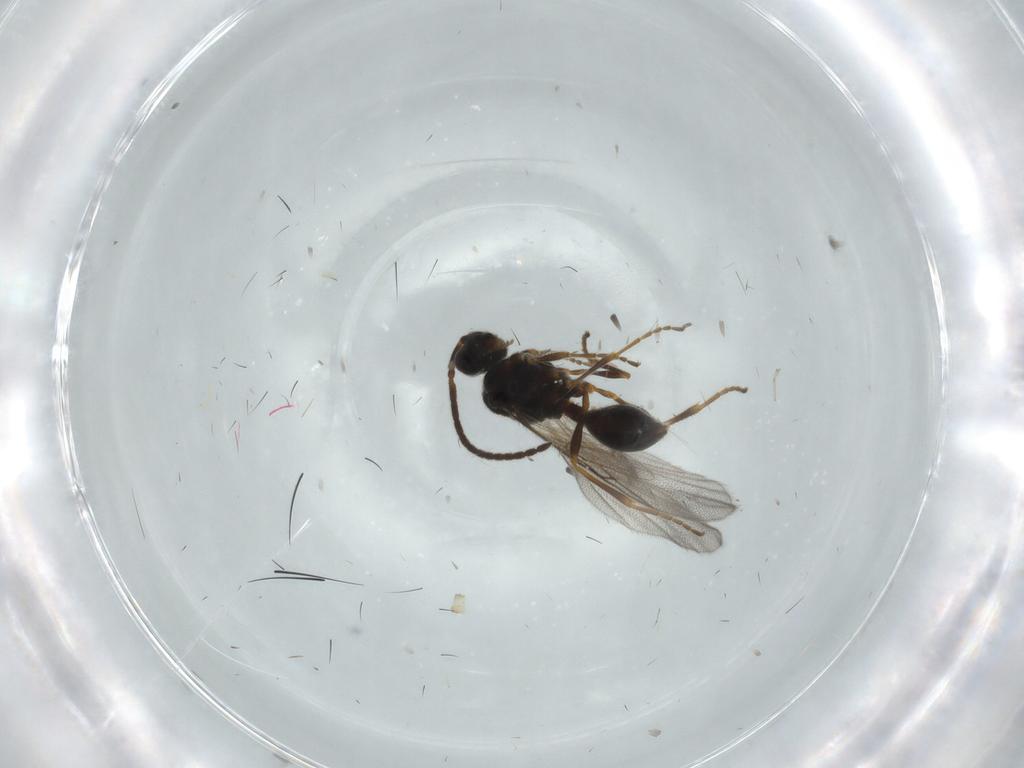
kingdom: Animalia
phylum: Arthropoda
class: Insecta
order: Hymenoptera
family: Diapriidae
